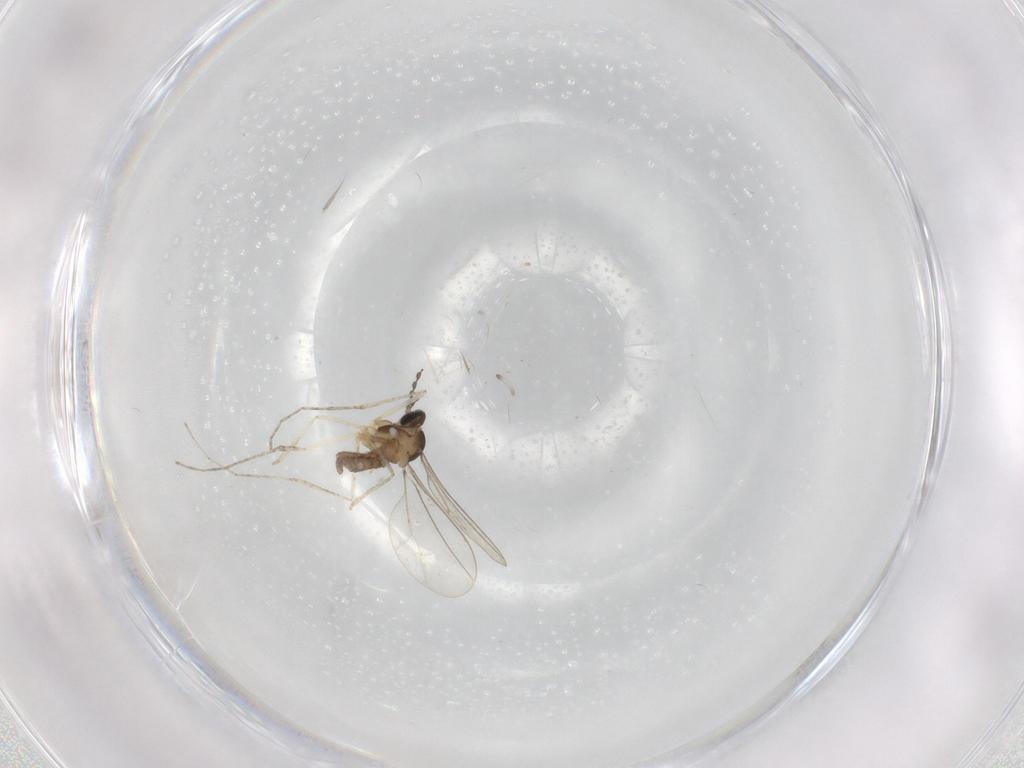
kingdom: Animalia
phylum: Arthropoda
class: Insecta
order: Diptera
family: Cecidomyiidae
